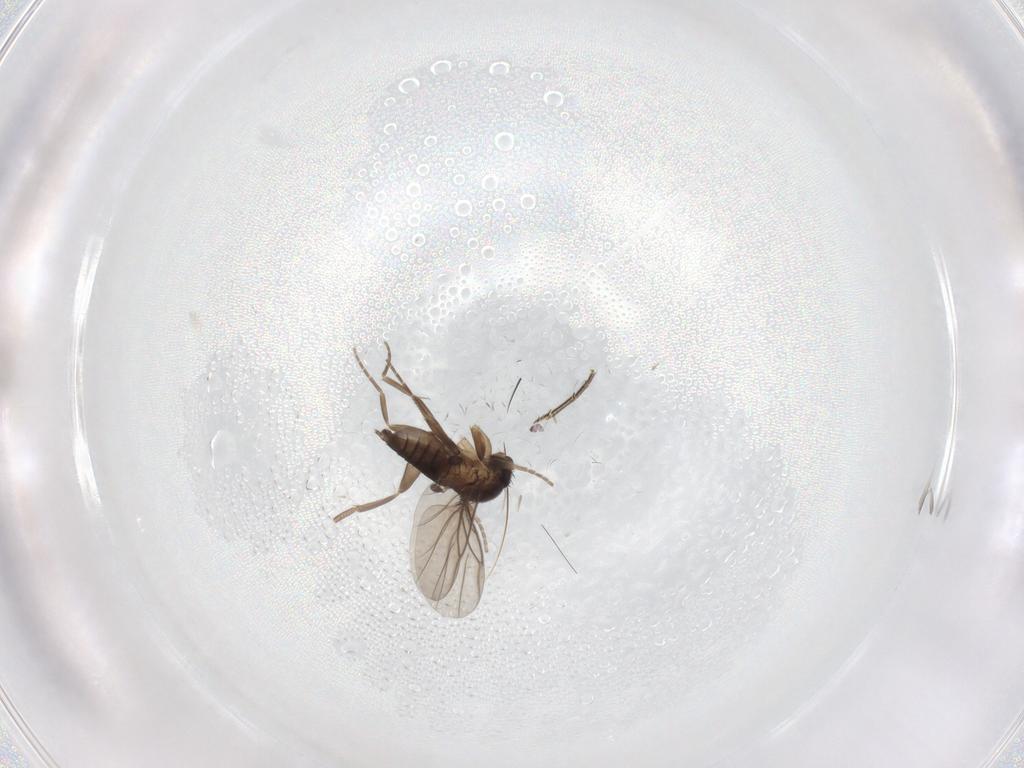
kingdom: Animalia
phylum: Arthropoda
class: Insecta
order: Diptera
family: Phoridae
